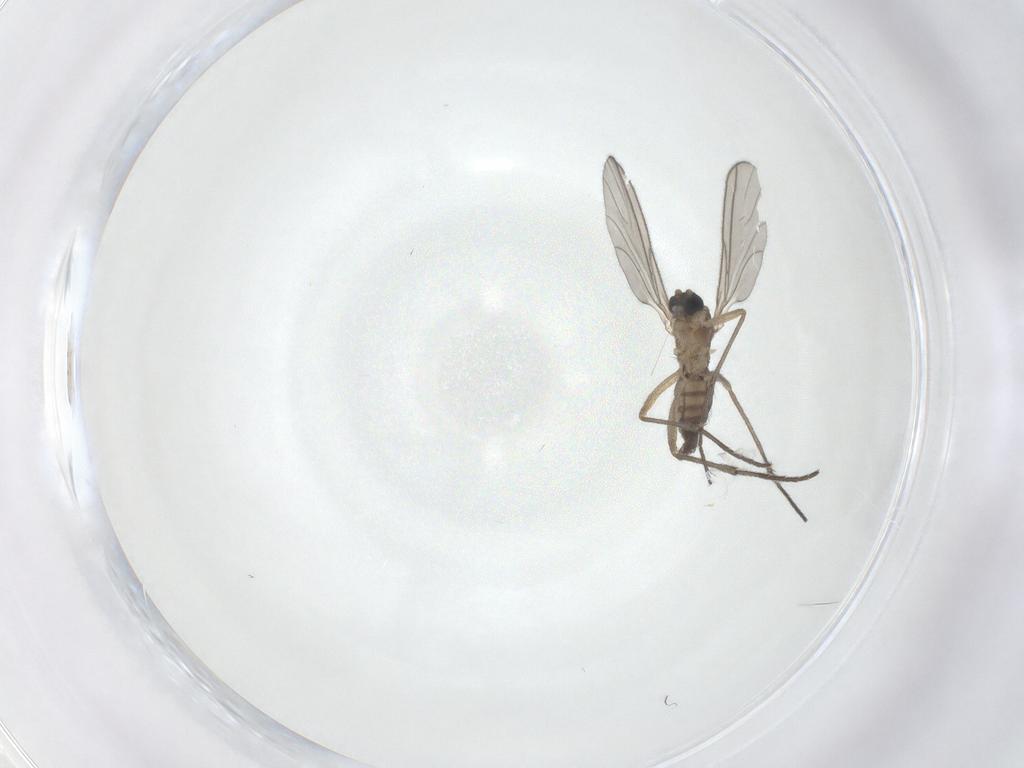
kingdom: Animalia
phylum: Arthropoda
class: Insecta
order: Diptera
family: Sciaridae
